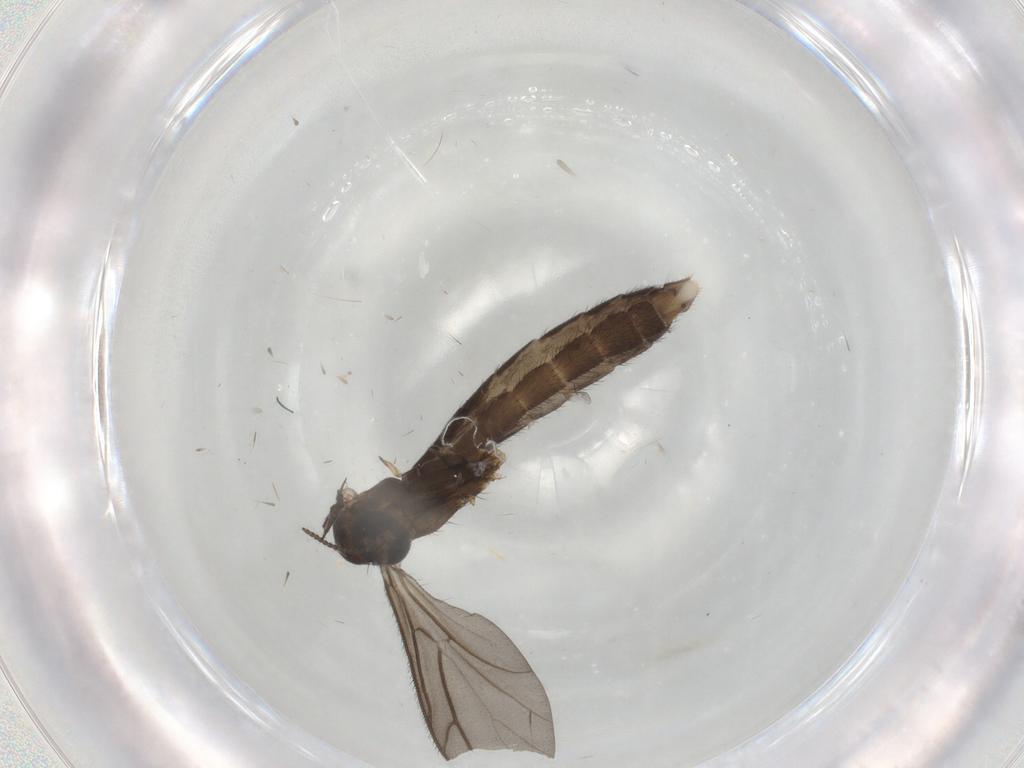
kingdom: Animalia
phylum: Arthropoda
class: Insecta
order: Diptera
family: Keroplatidae
